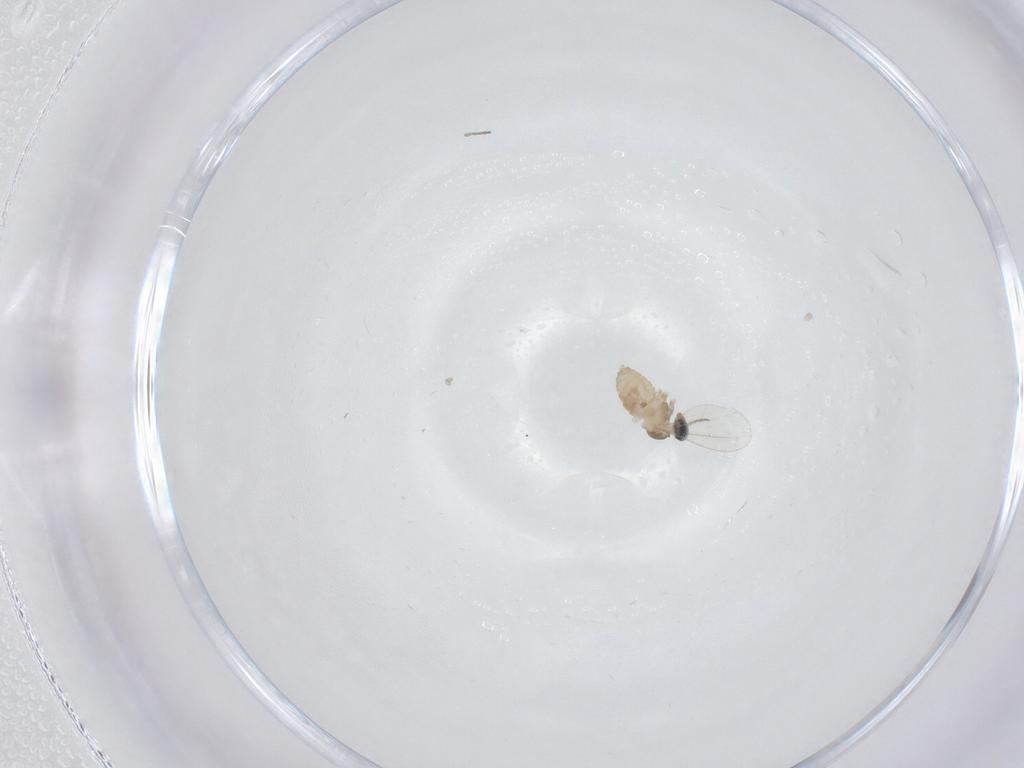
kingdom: Animalia
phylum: Arthropoda
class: Insecta
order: Diptera
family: Cecidomyiidae
